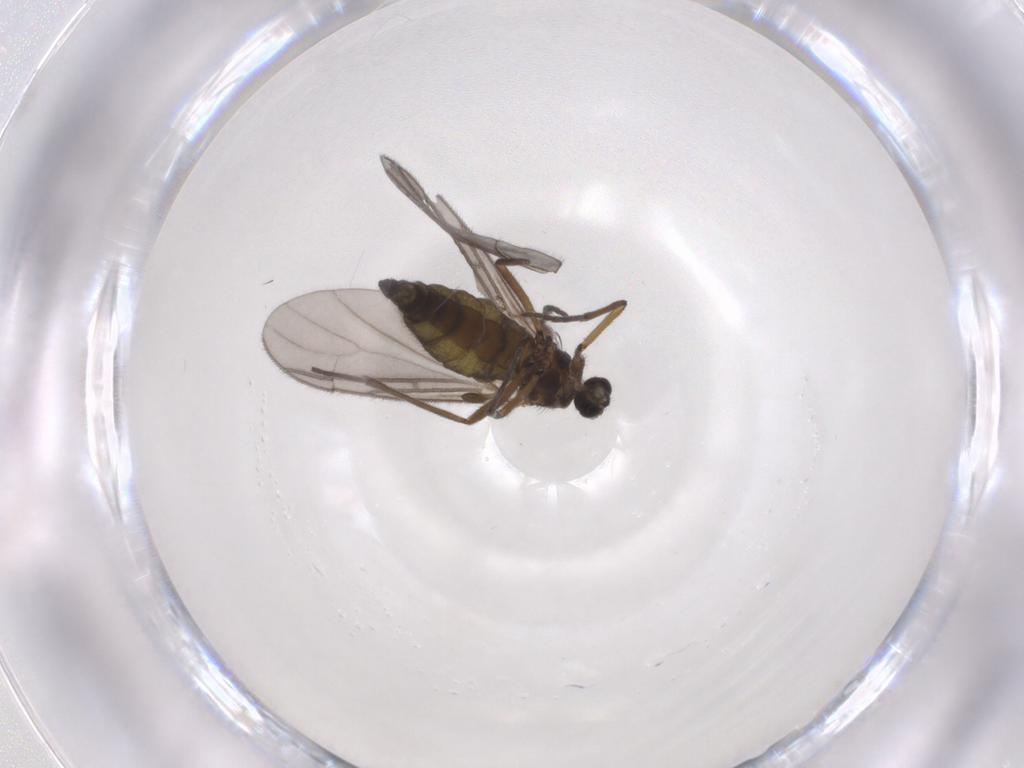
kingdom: Animalia
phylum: Arthropoda
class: Insecta
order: Diptera
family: Sciaridae
